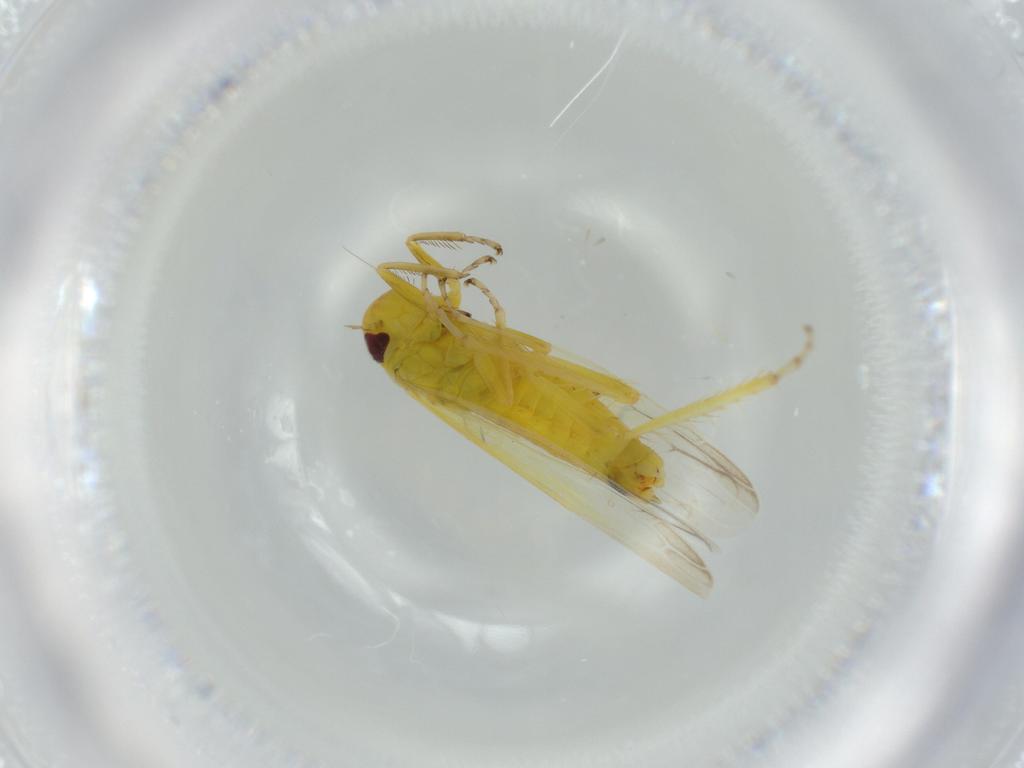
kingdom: Animalia
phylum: Arthropoda
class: Insecta
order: Hemiptera
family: Cicadellidae
